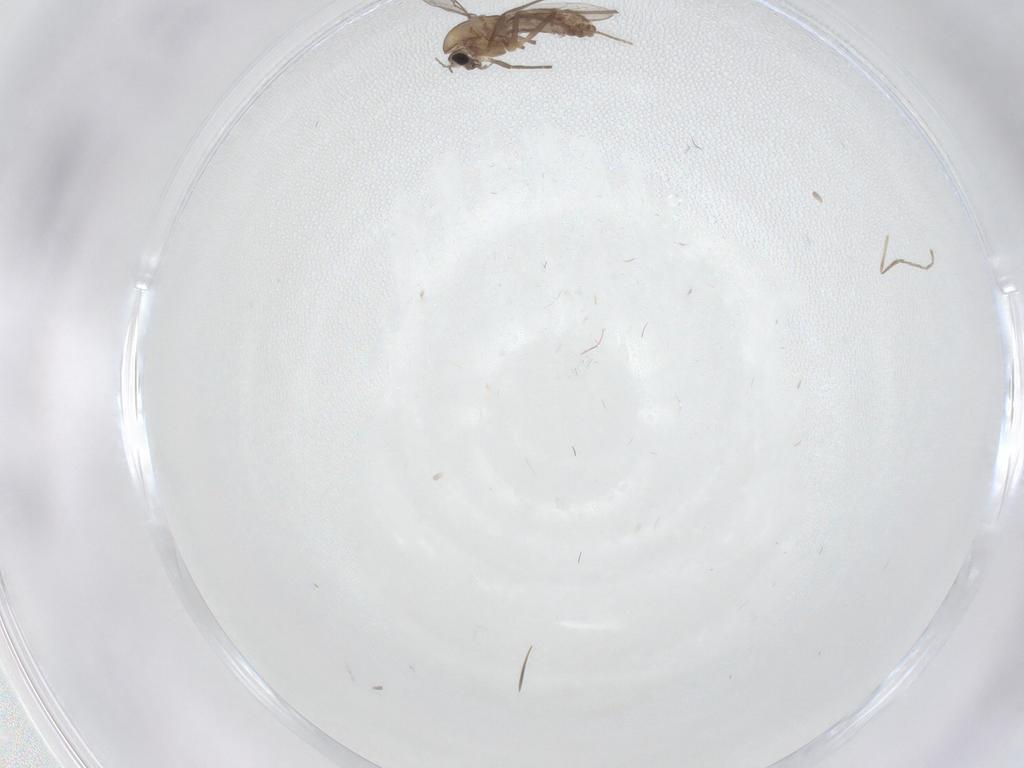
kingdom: Animalia
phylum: Arthropoda
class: Insecta
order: Diptera
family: Chironomidae
